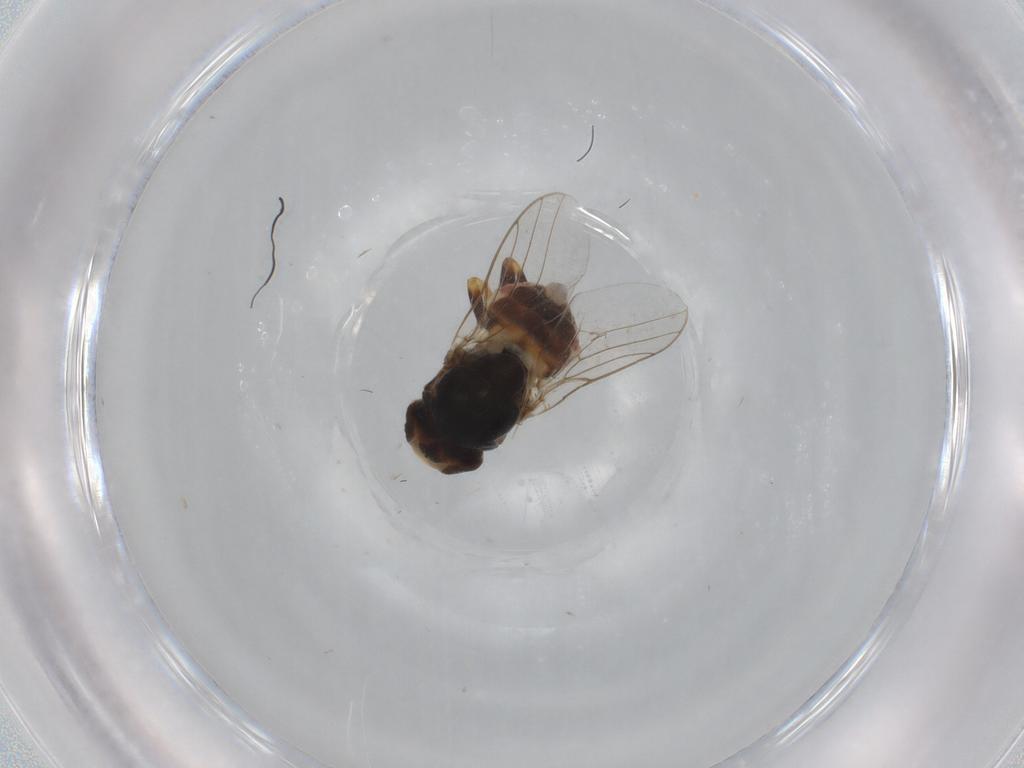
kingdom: Animalia
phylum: Arthropoda
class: Insecta
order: Diptera
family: Chloropidae
